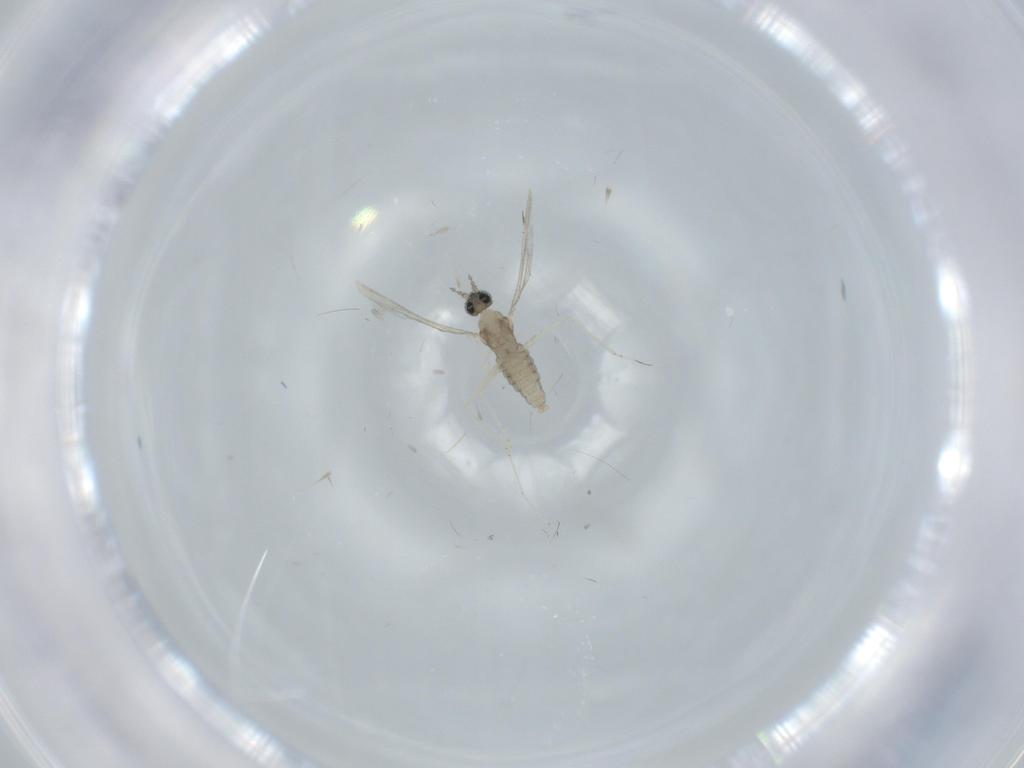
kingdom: Animalia
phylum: Arthropoda
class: Insecta
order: Diptera
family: Cecidomyiidae
